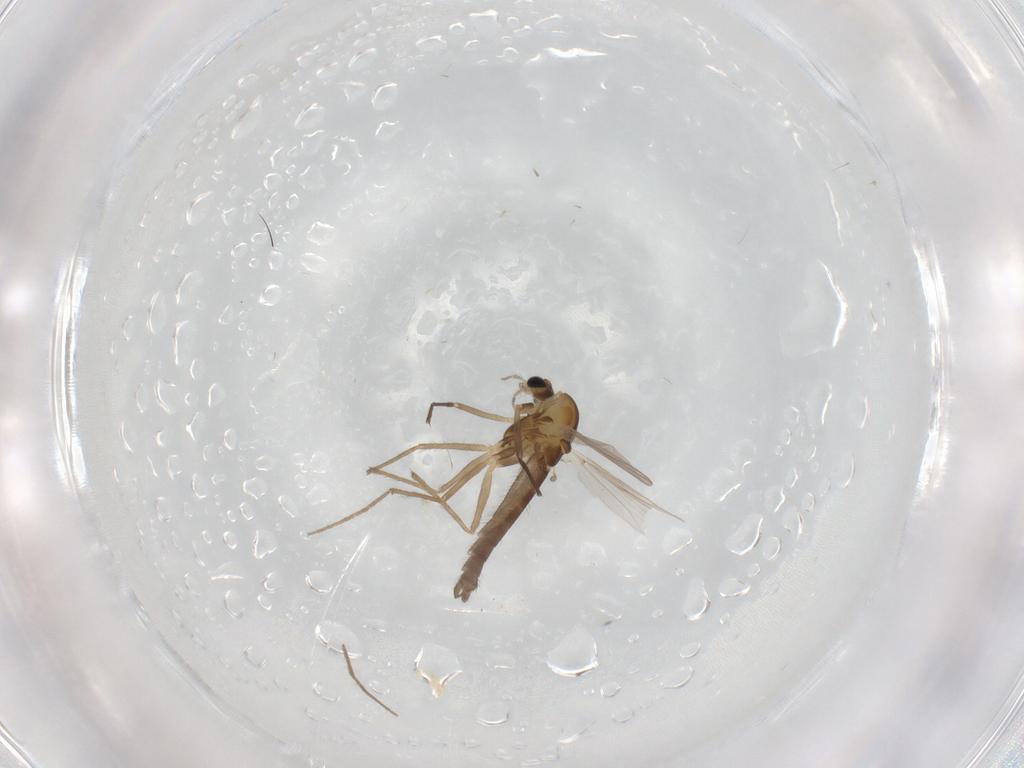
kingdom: Animalia
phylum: Arthropoda
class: Insecta
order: Diptera
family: Chironomidae
